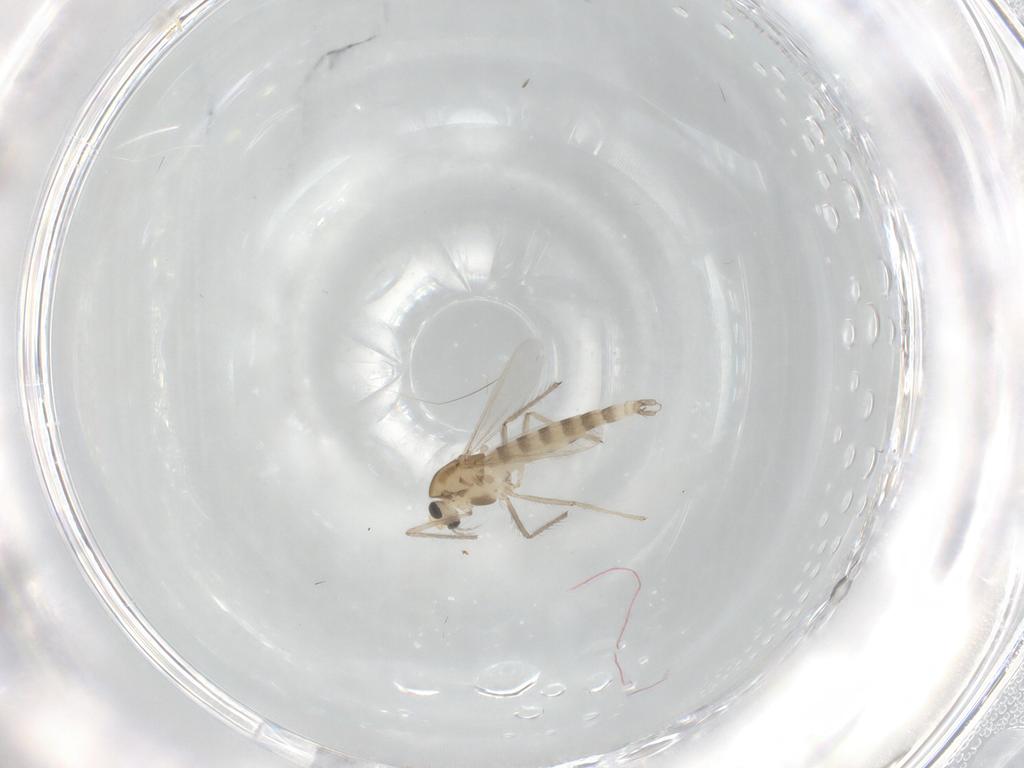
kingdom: Animalia
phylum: Arthropoda
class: Insecta
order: Diptera
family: Chironomidae
